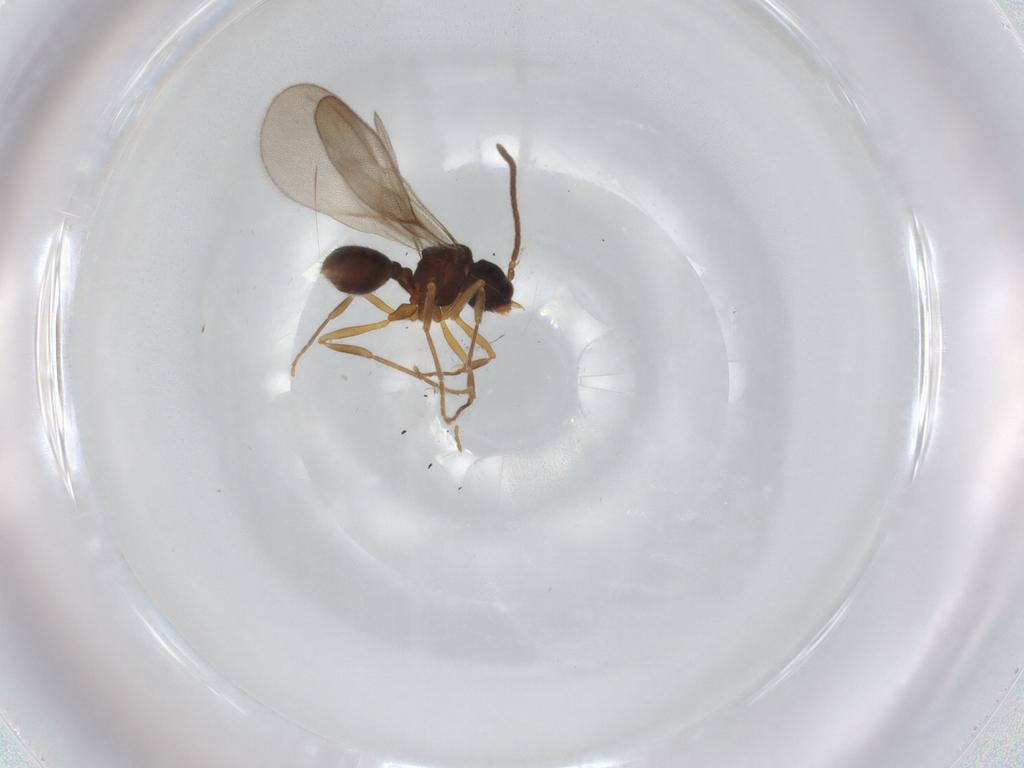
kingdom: Animalia
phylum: Arthropoda
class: Insecta
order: Hymenoptera
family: Formicidae
